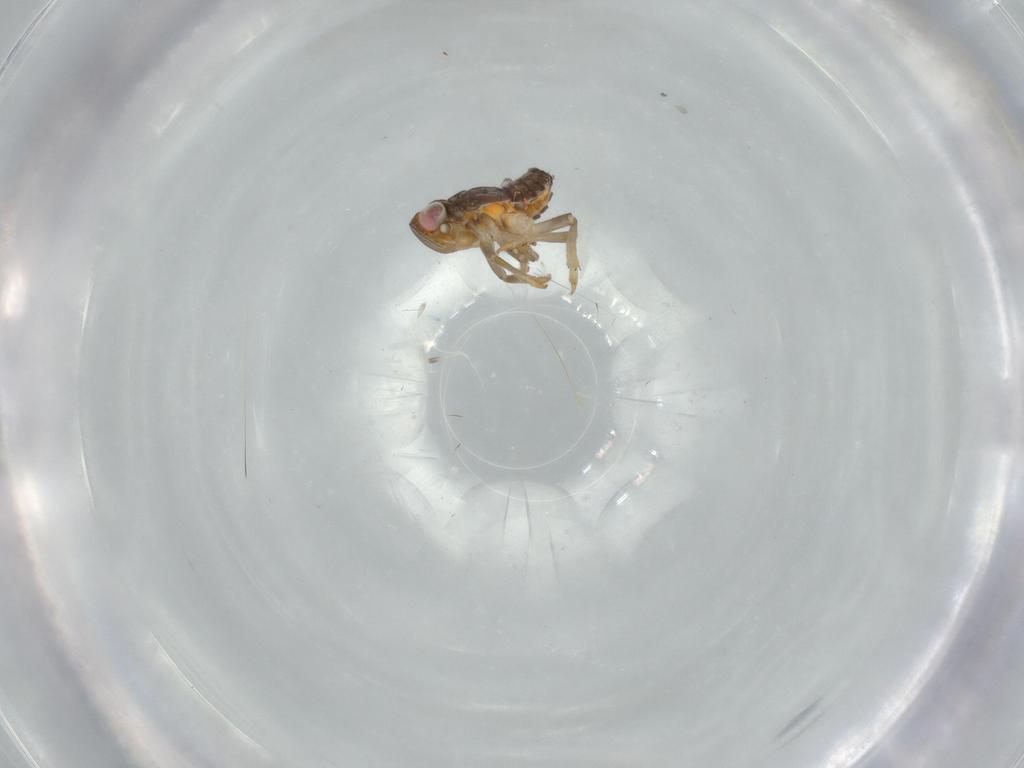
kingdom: Animalia
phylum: Arthropoda
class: Insecta
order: Hemiptera
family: Issidae
